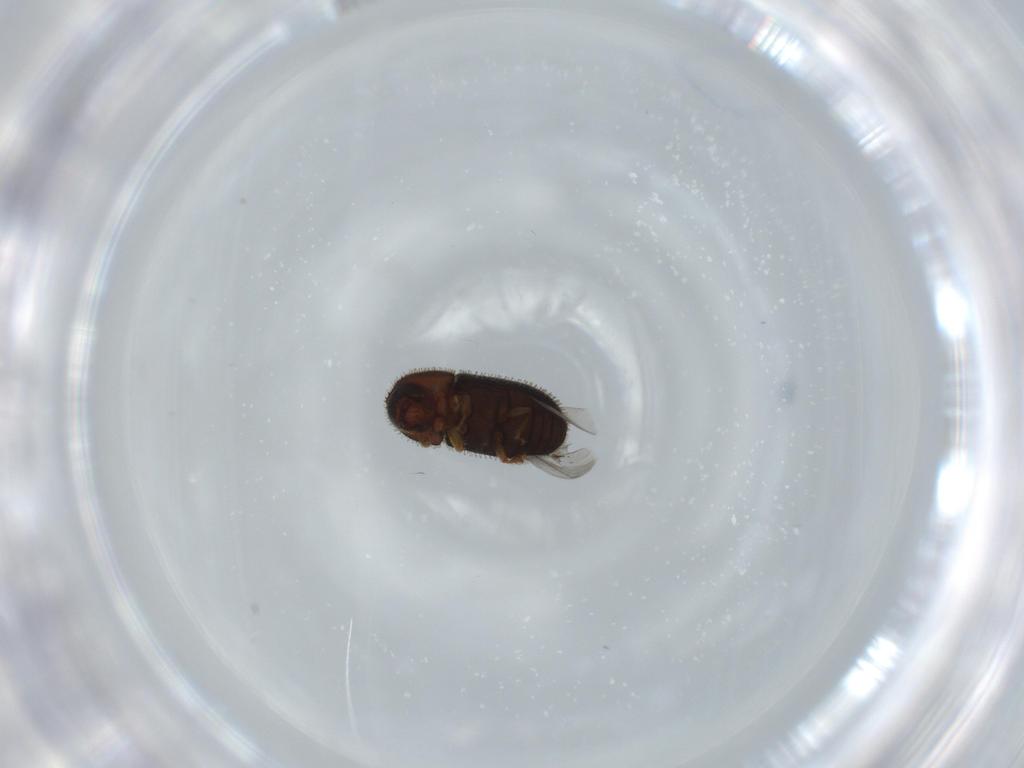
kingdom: Animalia
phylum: Arthropoda
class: Insecta
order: Coleoptera
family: Curculionidae
